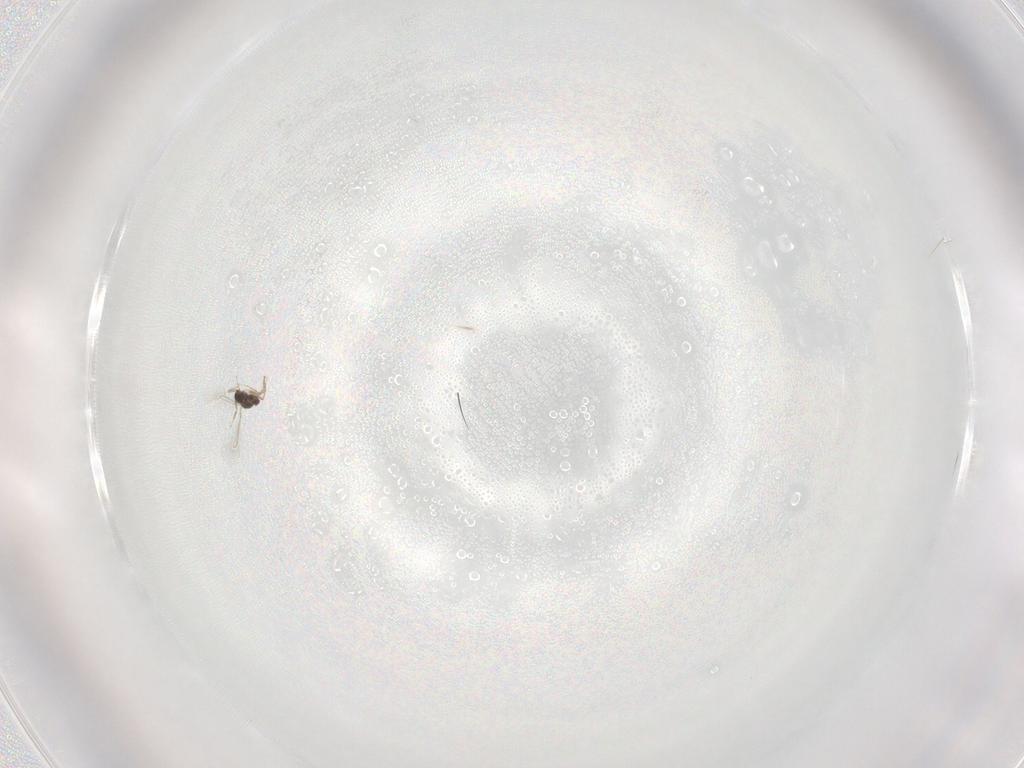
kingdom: Animalia
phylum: Arthropoda
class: Insecta
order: Hymenoptera
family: Mymaridae
